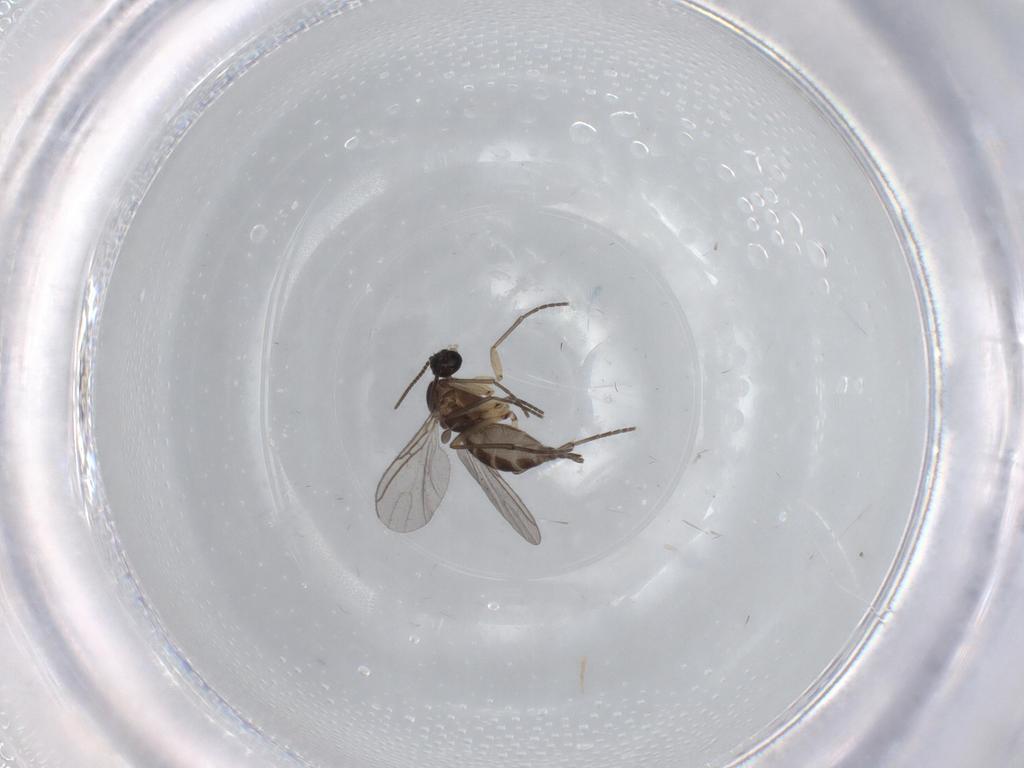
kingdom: Animalia
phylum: Arthropoda
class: Insecta
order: Diptera
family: Sciaridae
